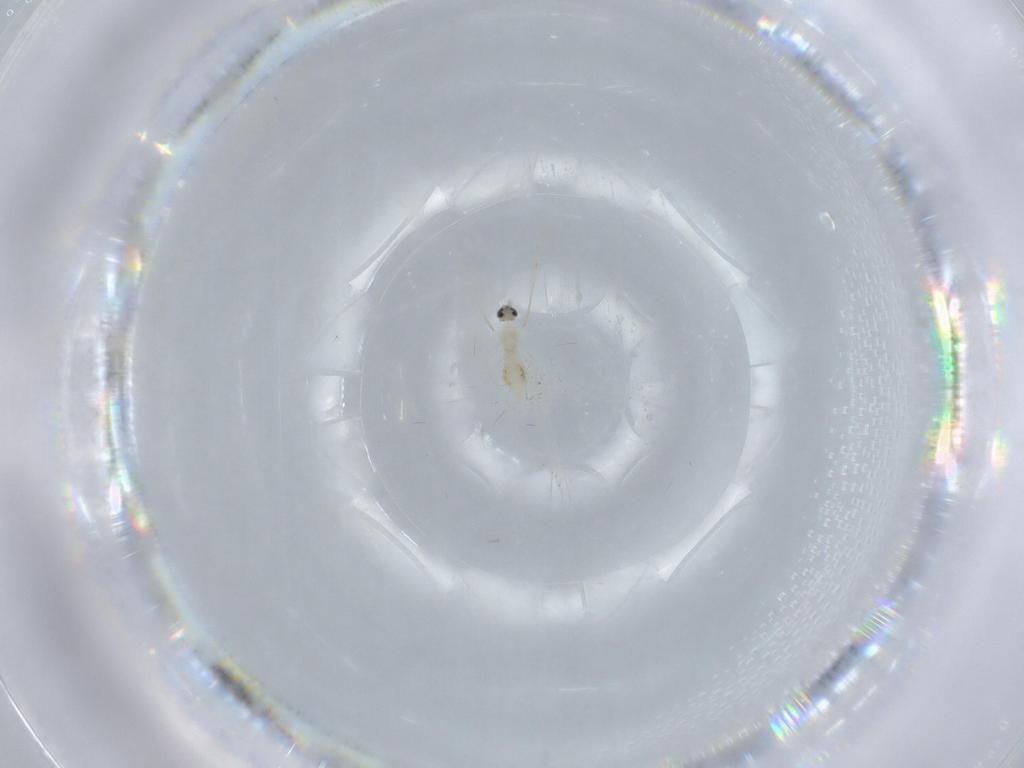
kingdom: Animalia
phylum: Arthropoda
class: Insecta
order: Diptera
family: Cecidomyiidae
